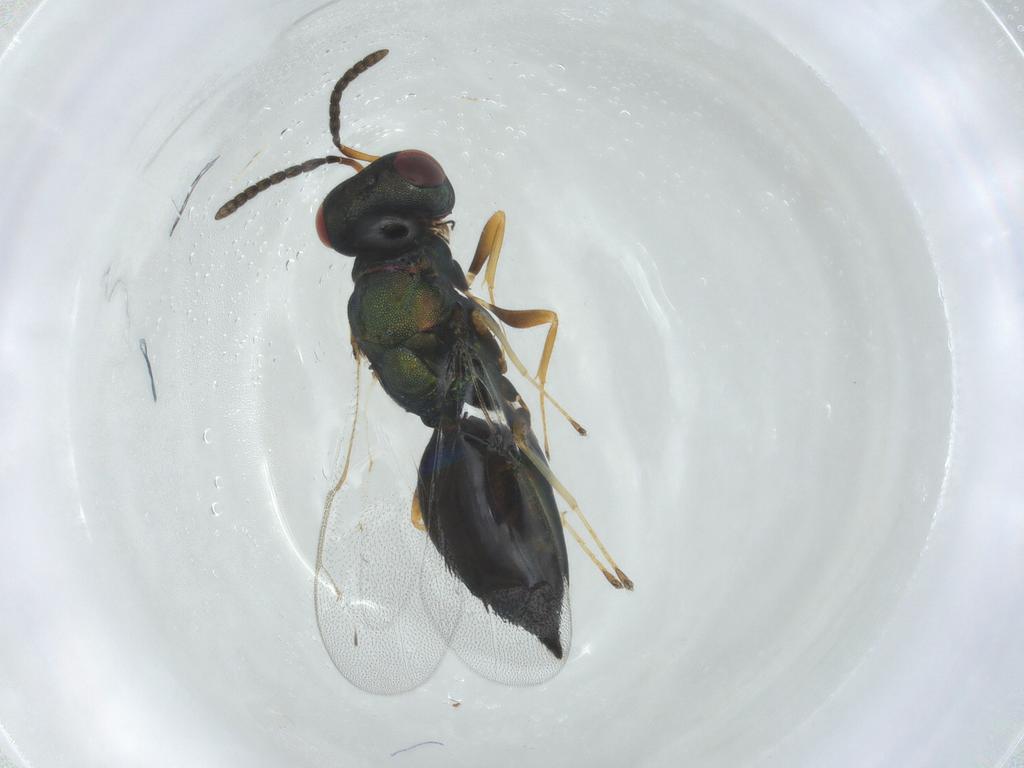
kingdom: Animalia
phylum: Arthropoda
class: Insecta
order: Hymenoptera
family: Pteromalidae
